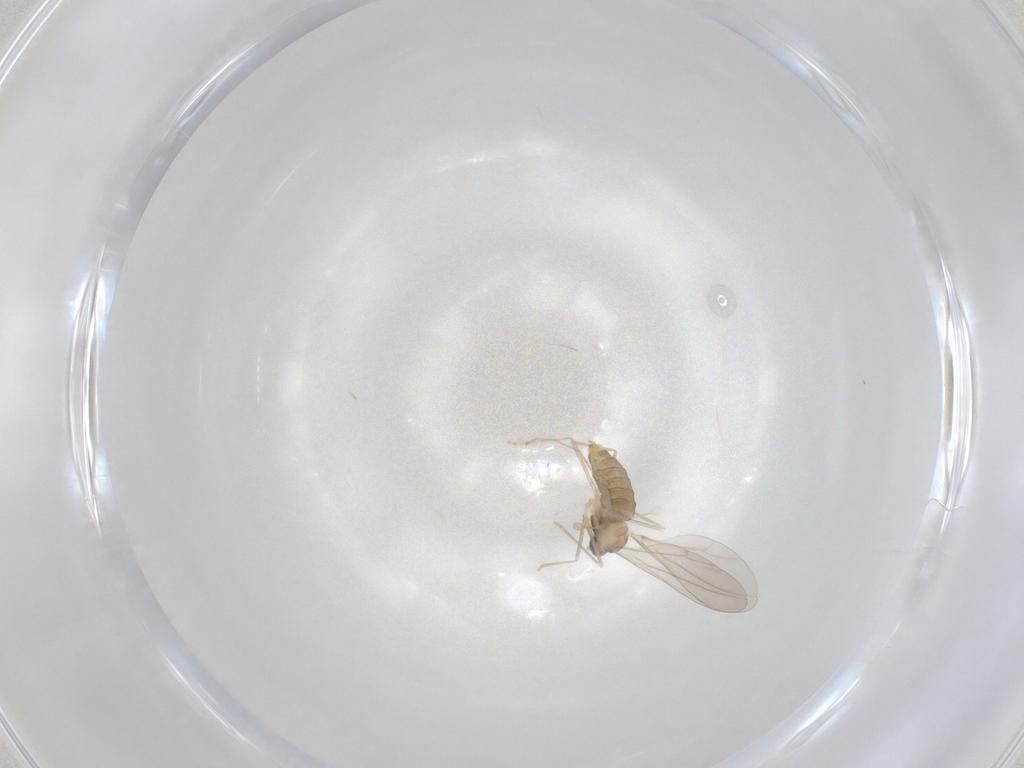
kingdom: Animalia
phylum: Arthropoda
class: Insecta
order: Diptera
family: Cecidomyiidae
